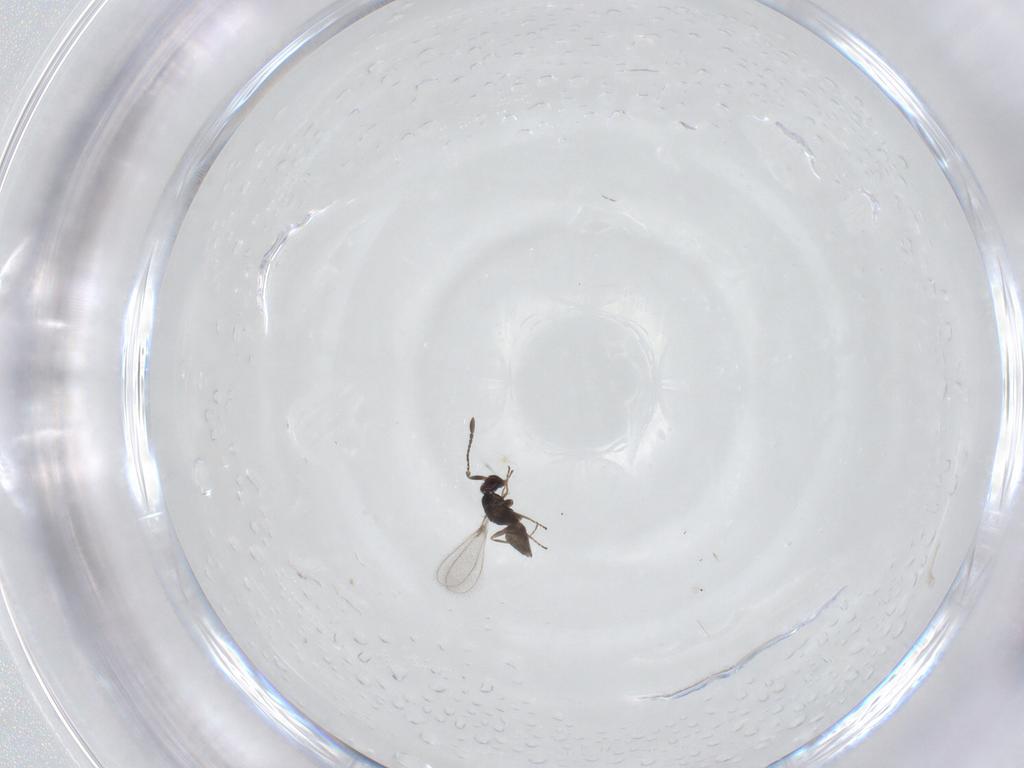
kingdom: Animalia
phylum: Arthropoda
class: Insecta
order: Hymenoptera
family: Mymaridae
